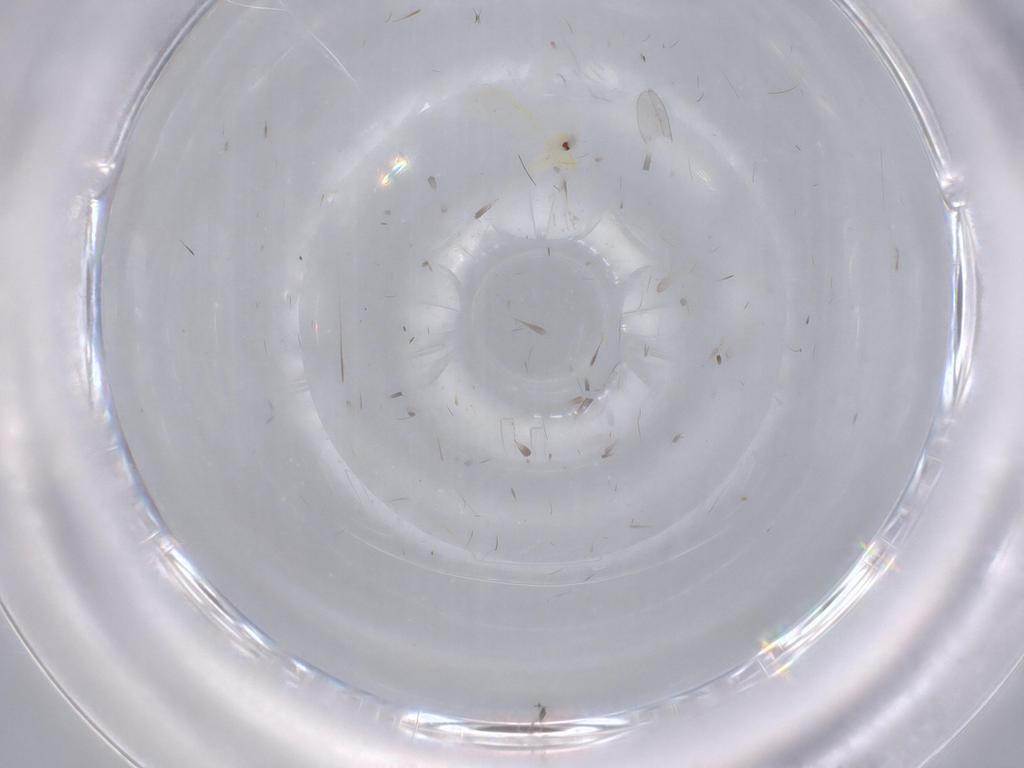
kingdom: Animalia
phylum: Arthropoda
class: Insecta
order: Hemiptera
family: Aleyrodidae
